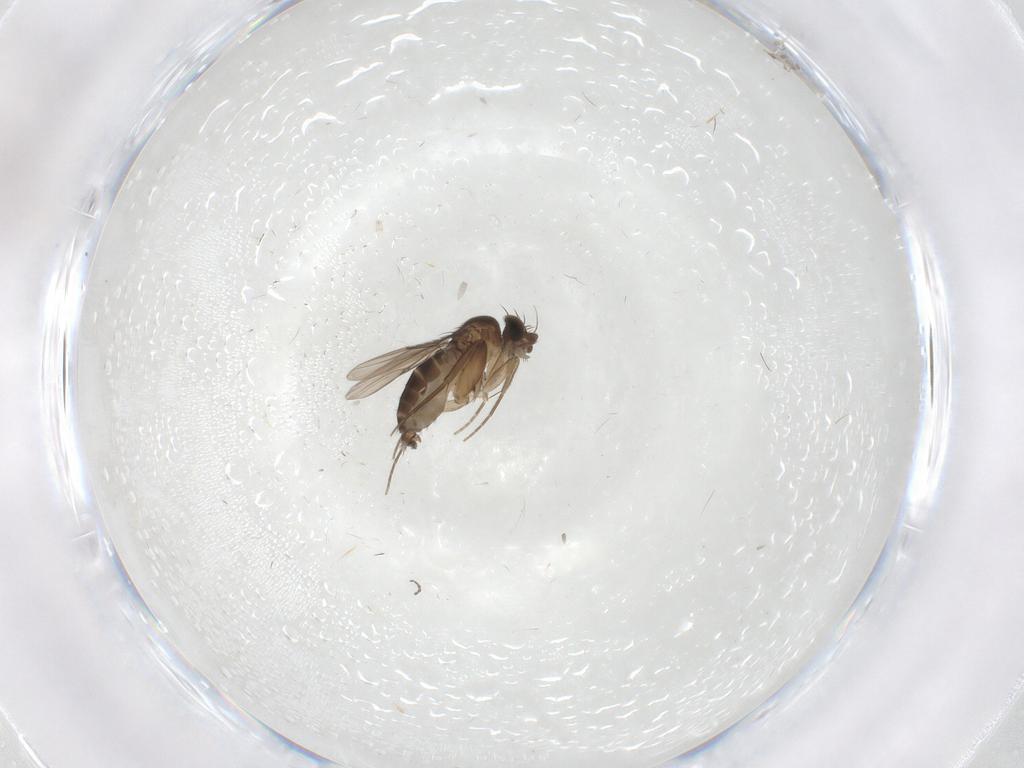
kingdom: Animalia
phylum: Arthropoda
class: Insecta
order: Diptera
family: Phoridae
